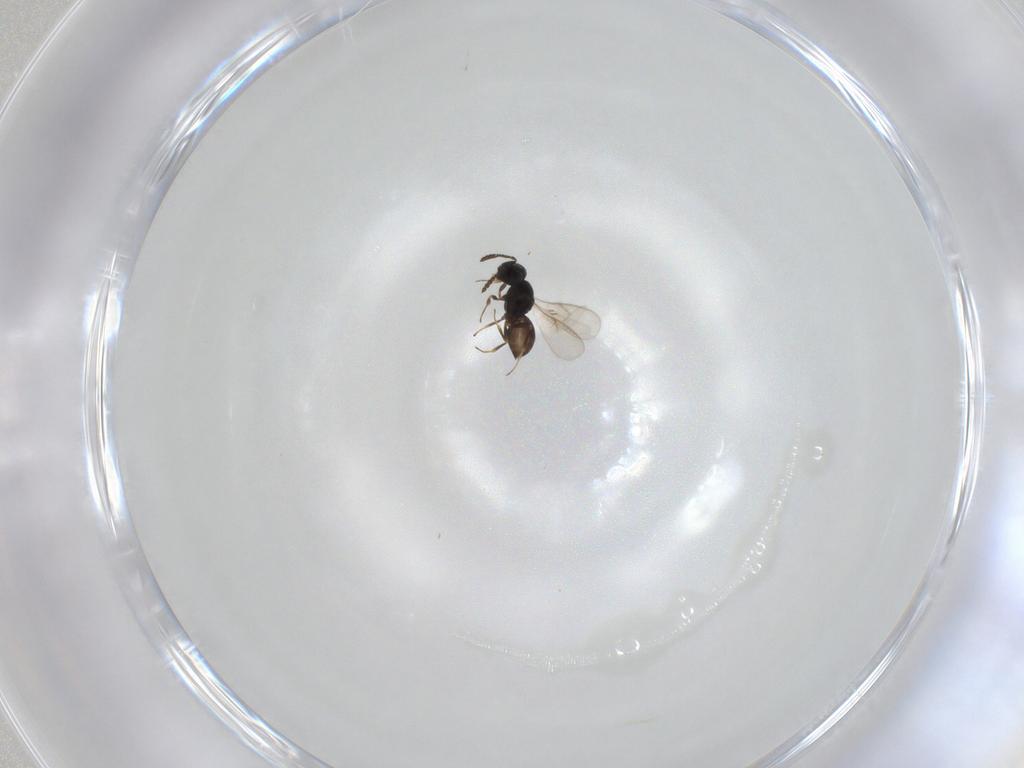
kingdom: Animalia
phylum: Arthropoda
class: Insecta
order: Hymenoptera
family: Scelionidae
